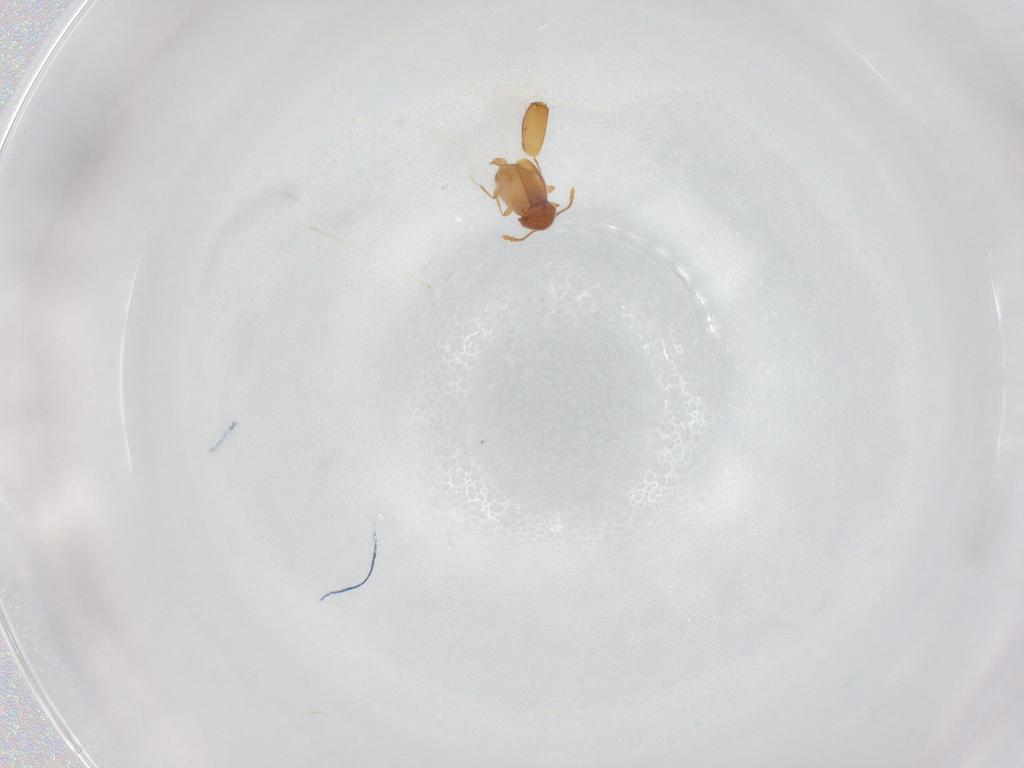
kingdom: Animalia
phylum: Arthropoda
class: Insecta
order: Coleoptera
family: Staphylinidae
